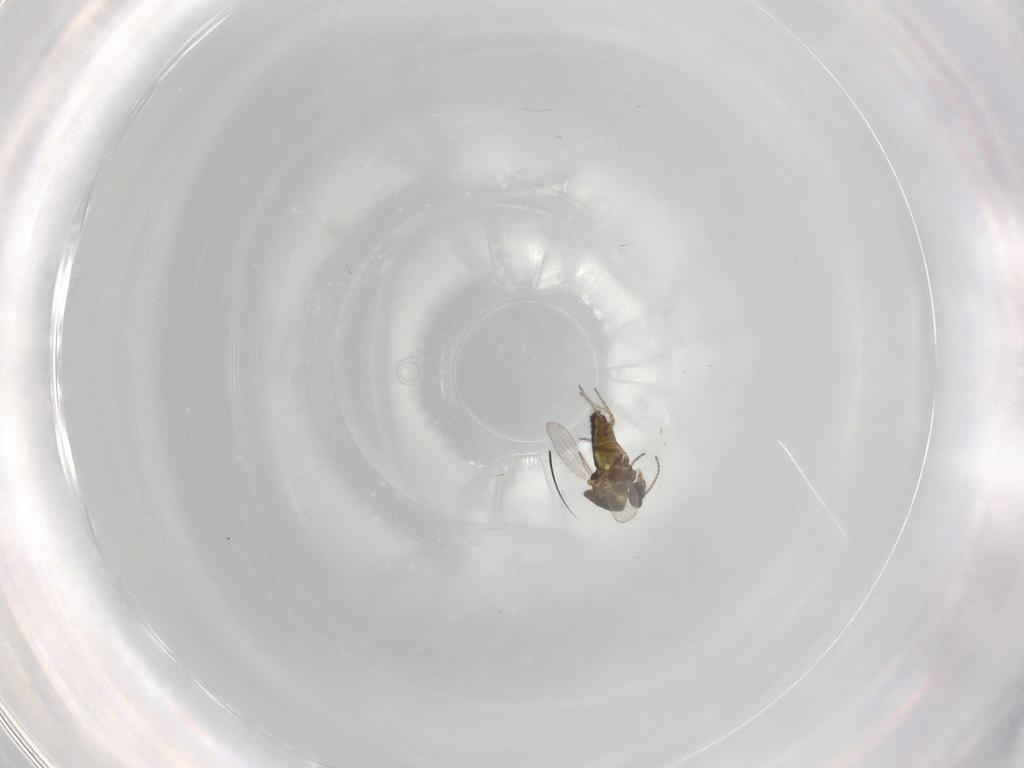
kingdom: Animalia
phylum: Arthropoda
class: Insecta
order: Diptera
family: Ceratopogonidae
